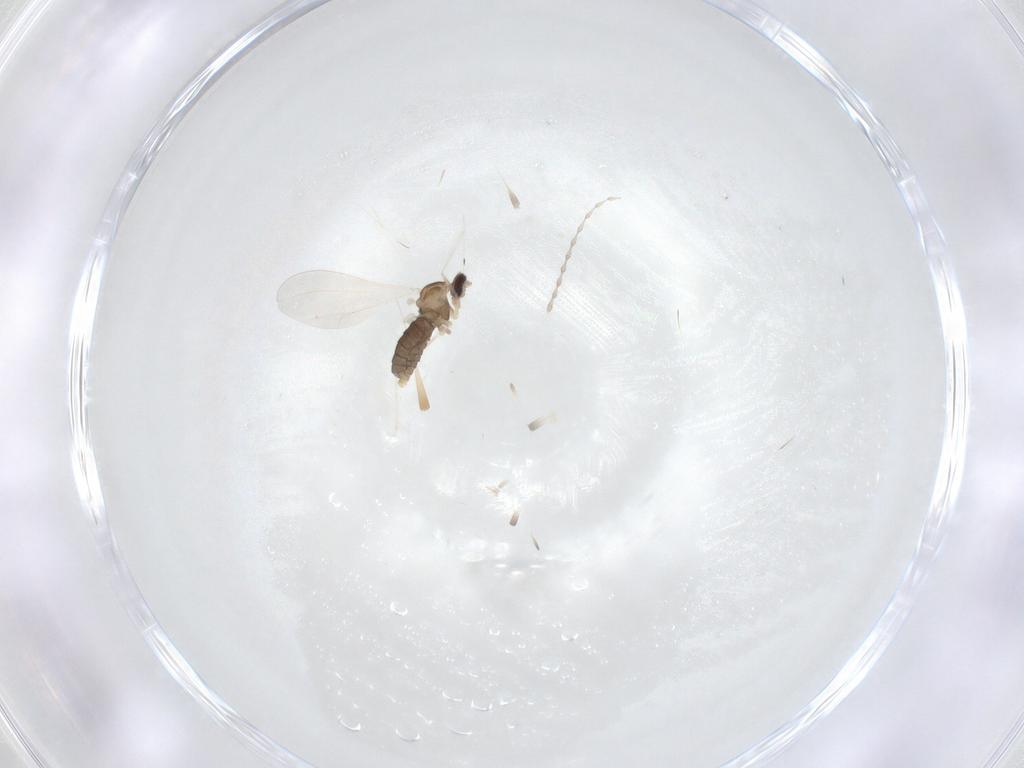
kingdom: Animalia
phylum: Arthropoda
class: Insecta
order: Diptera
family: Cecidomyiidae
